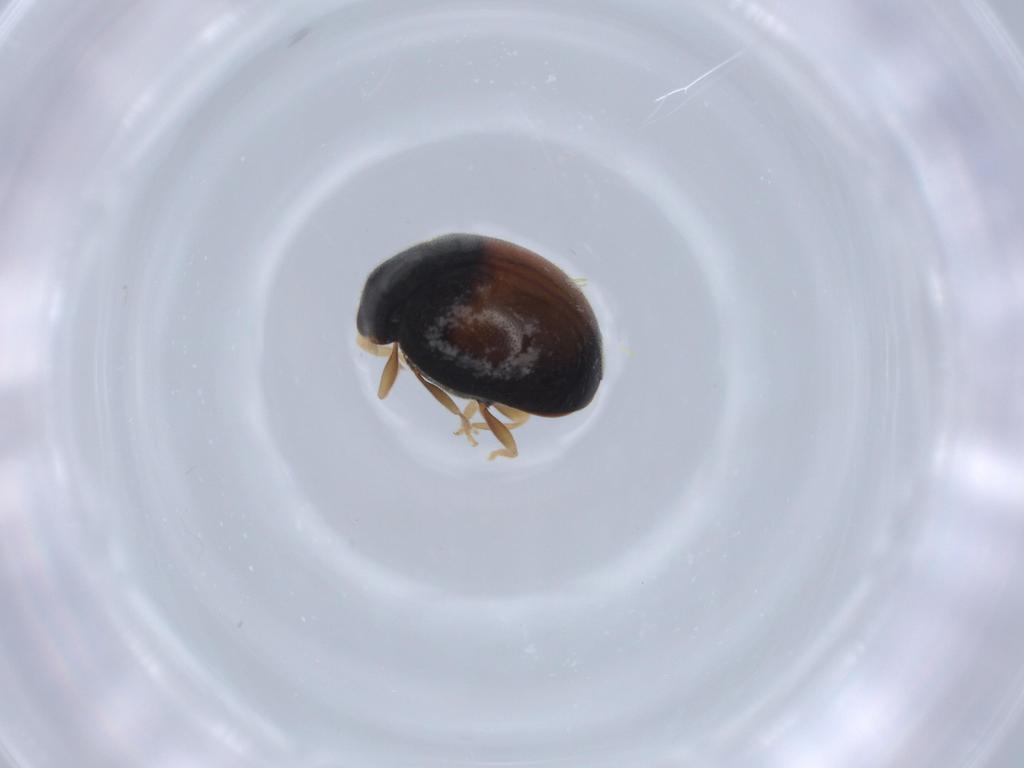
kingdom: Animalia
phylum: Arthropoda
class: Insecta
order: Coleoptera
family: Coccinellidae
